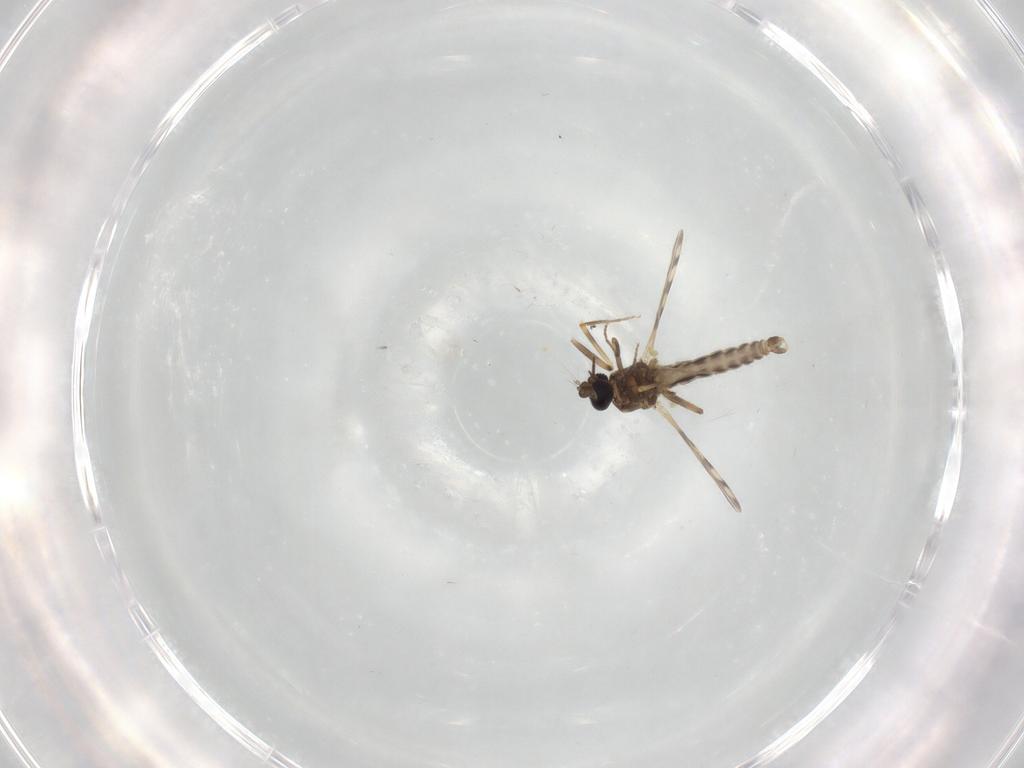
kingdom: Animalia
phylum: Arthropoda
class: Insecta
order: Diptera
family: Ceratopogonidae
